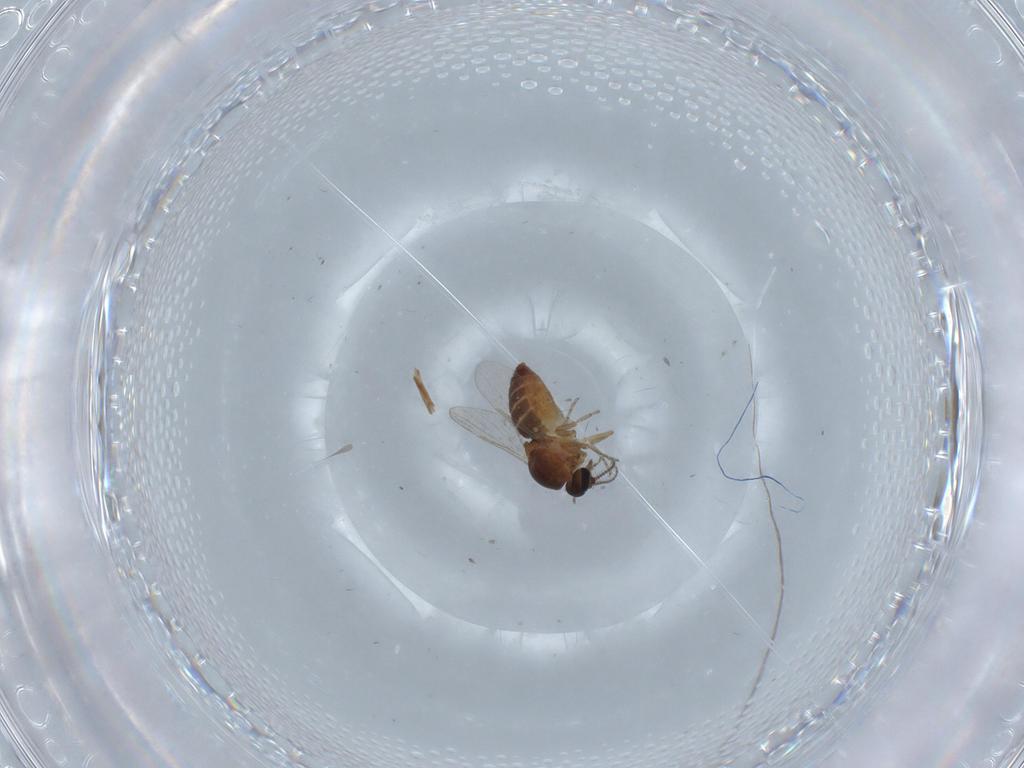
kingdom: Animalia
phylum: Arthropoda
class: Insecta
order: Diptera
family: Ceratopogonidae
